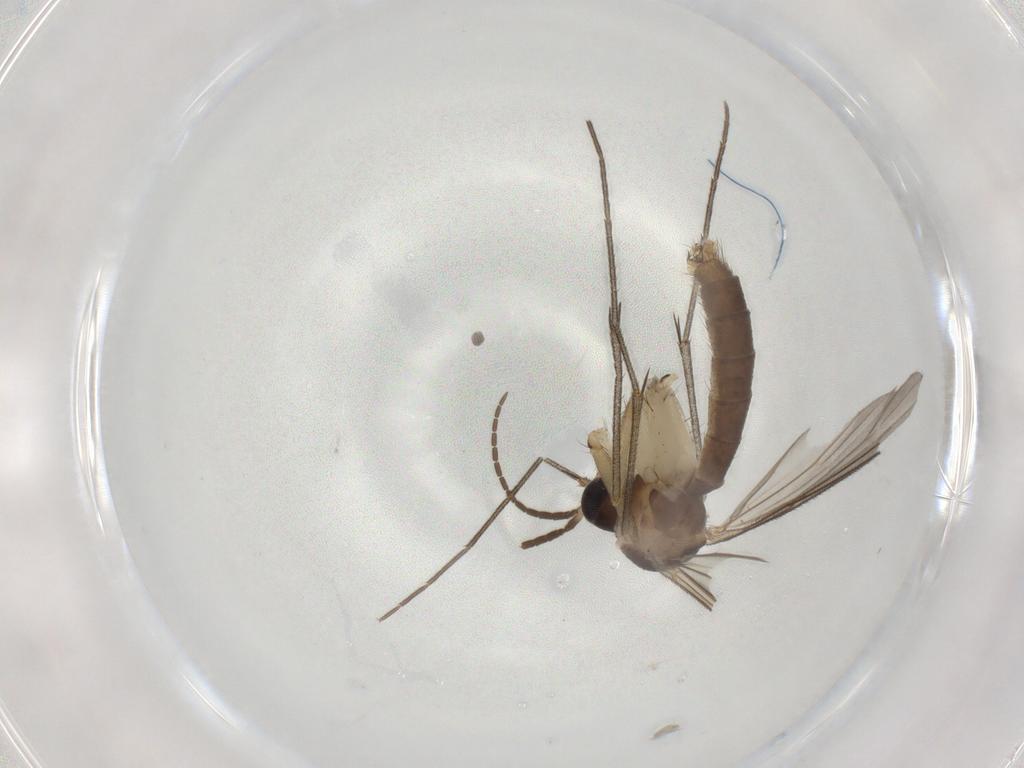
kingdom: Animalia
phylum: Arthropoda
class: Insecta
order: Diptera
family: Mycetophilidae
